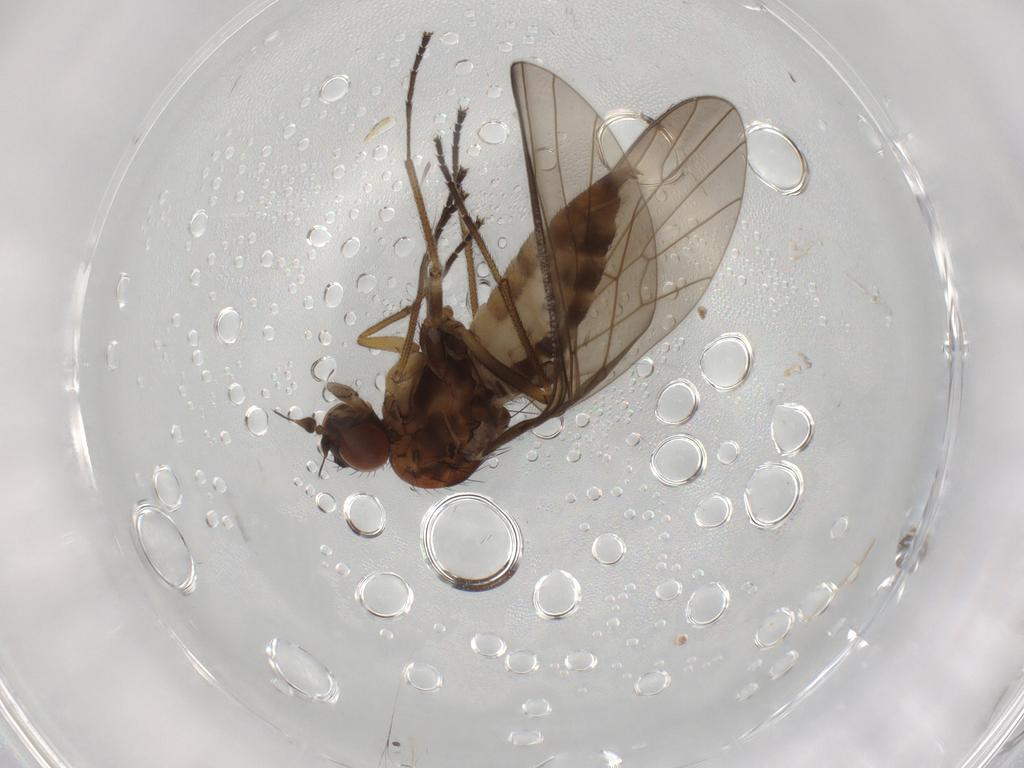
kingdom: Animalia
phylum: Arthropoda
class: Insecta
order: Diptera
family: Empididae
